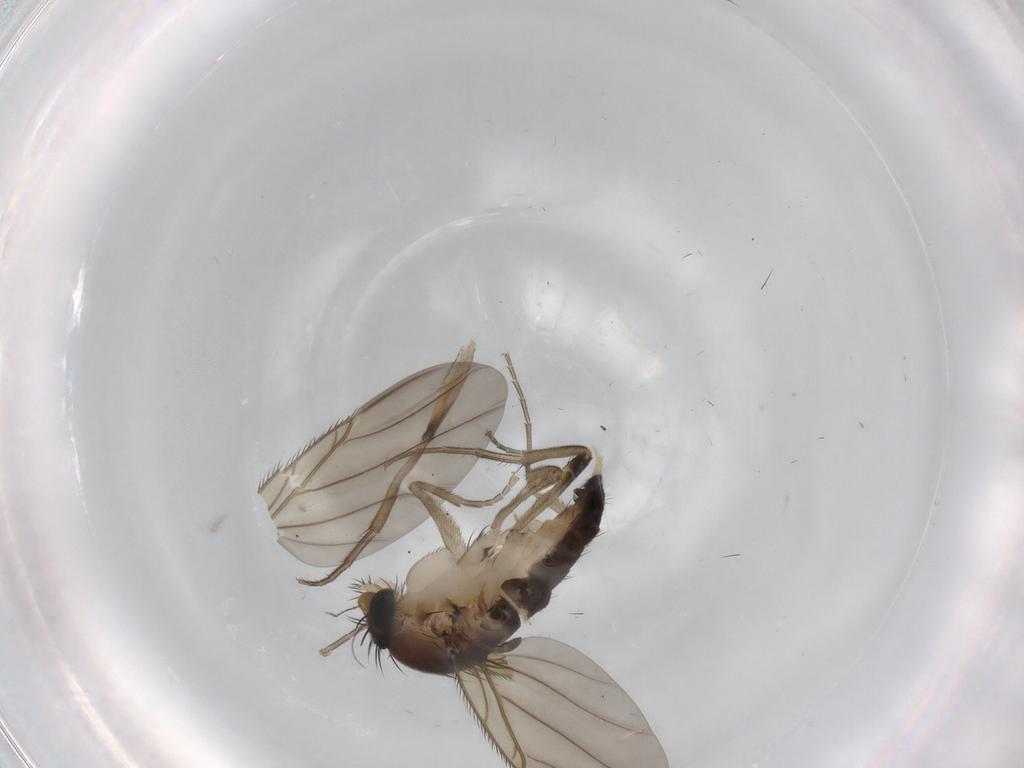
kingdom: Animalia
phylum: Arthropoda
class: Insecta
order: Diptera
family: Phoridae
